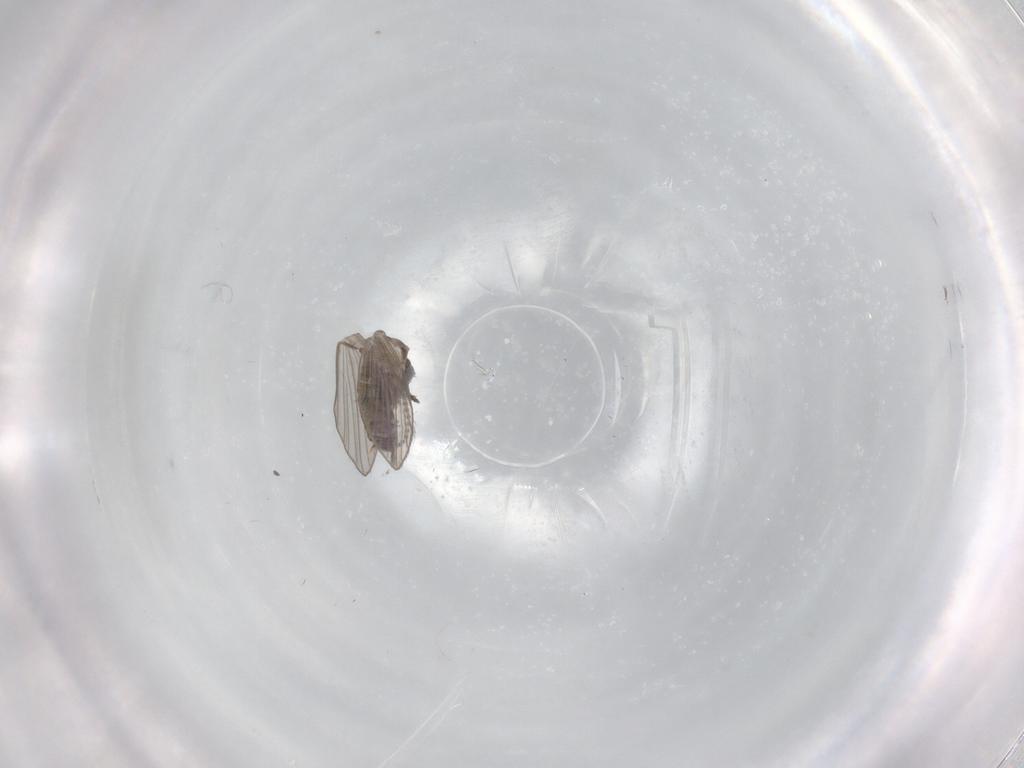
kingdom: Animalia
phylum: Arthropoda
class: Insecta
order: Diptera
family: Psychodidae
